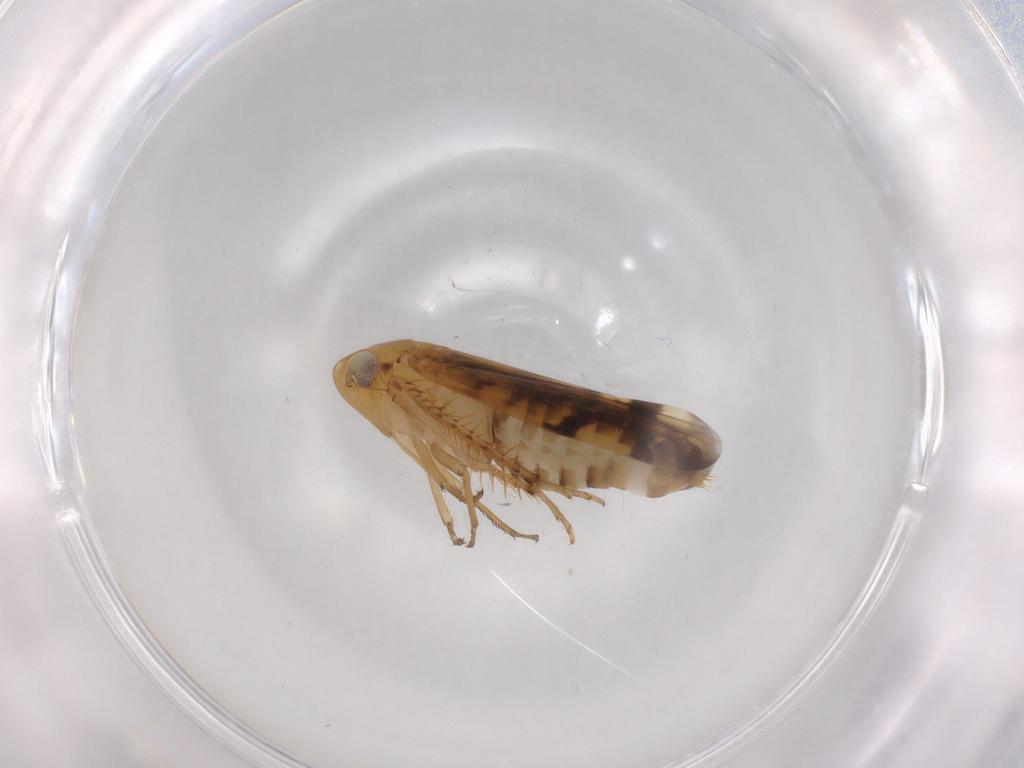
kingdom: Animalia
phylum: Arthropoda
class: Insecta
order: Hemiptera
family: Cicadellidae
